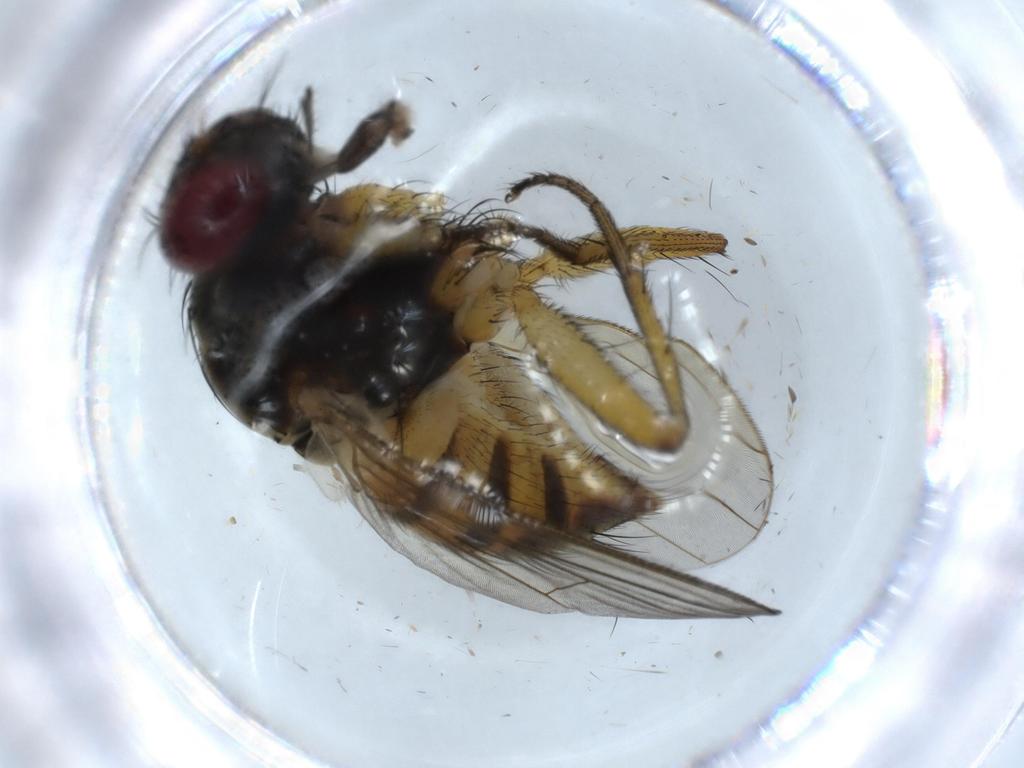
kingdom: Animalia
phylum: Arthropoda
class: Insecta
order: Diptera
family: Muscidae
